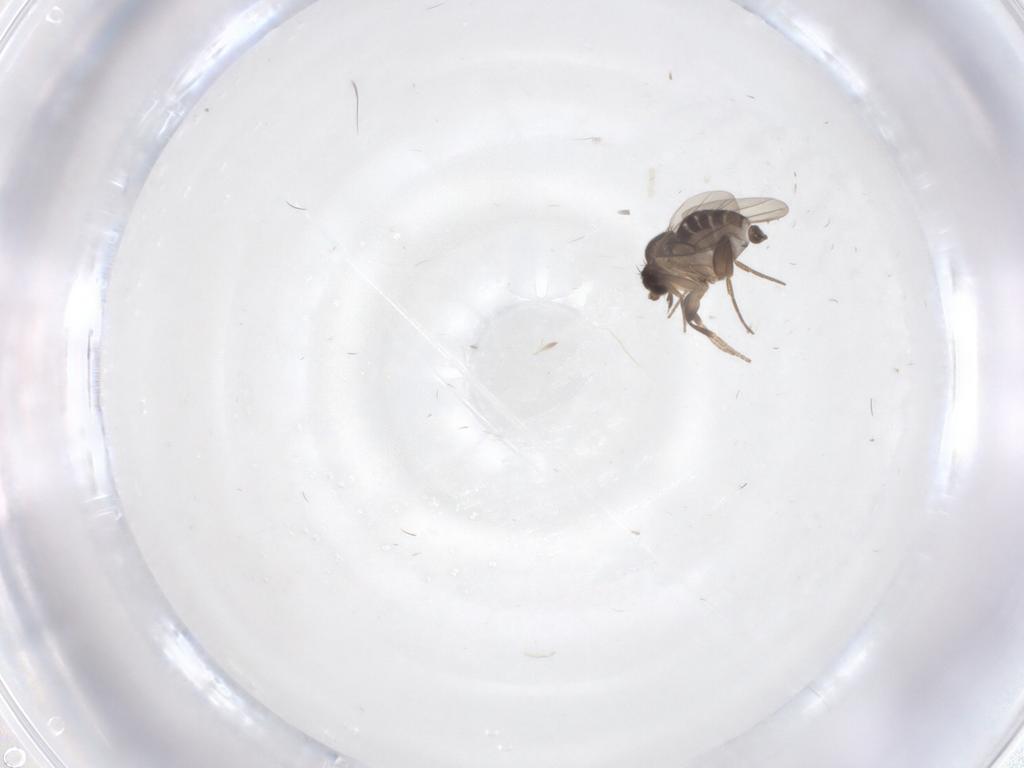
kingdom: Animalia
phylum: Arthropoda
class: Insecta
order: Diptera
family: Phoridae
